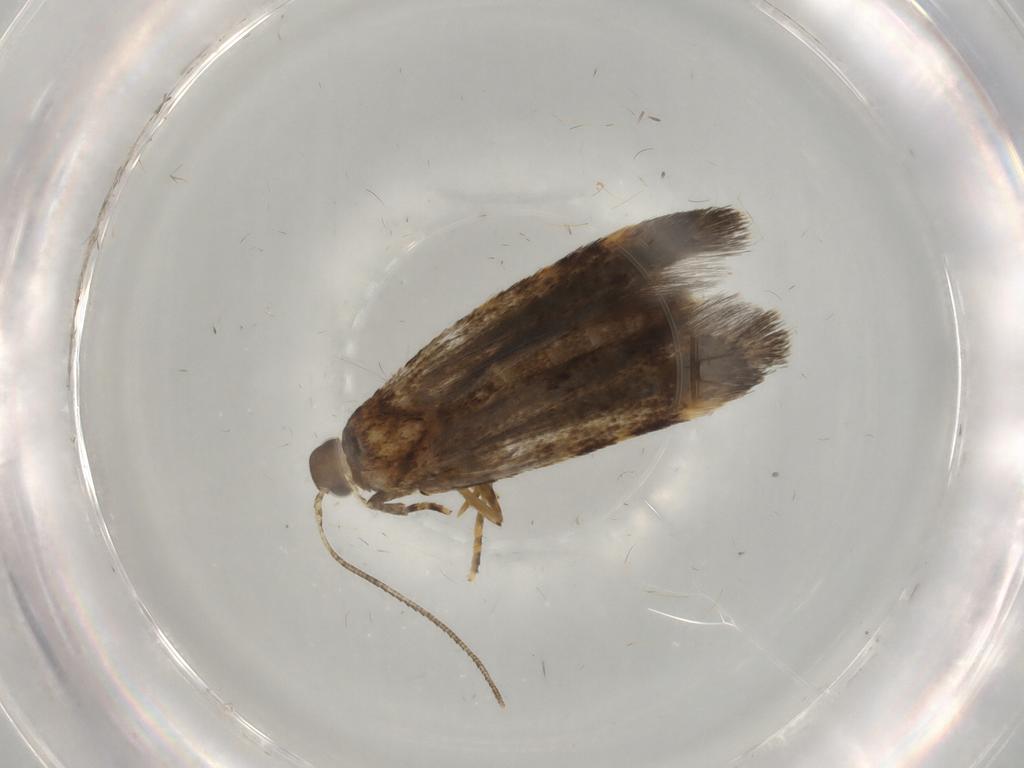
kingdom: Animalia
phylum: Arthropoda
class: Insecta
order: Lepidoptera
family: Oecophoridae
